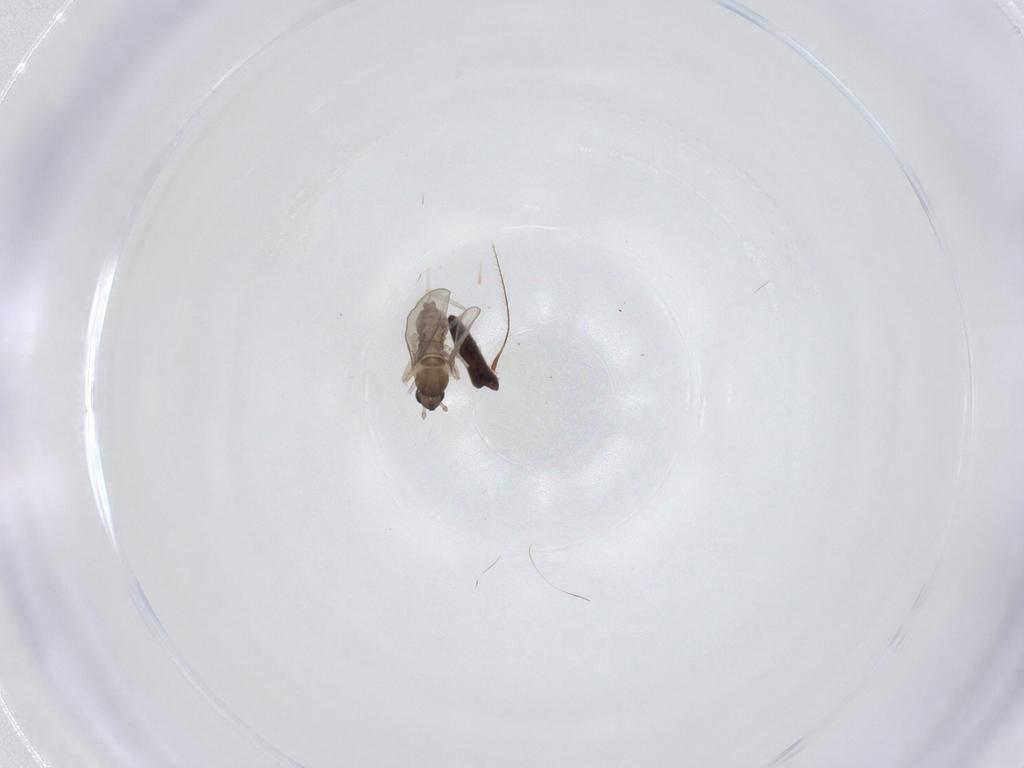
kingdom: Animalia
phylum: Arthropoda
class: Insecta
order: Diptera
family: Cecidomyiidae
